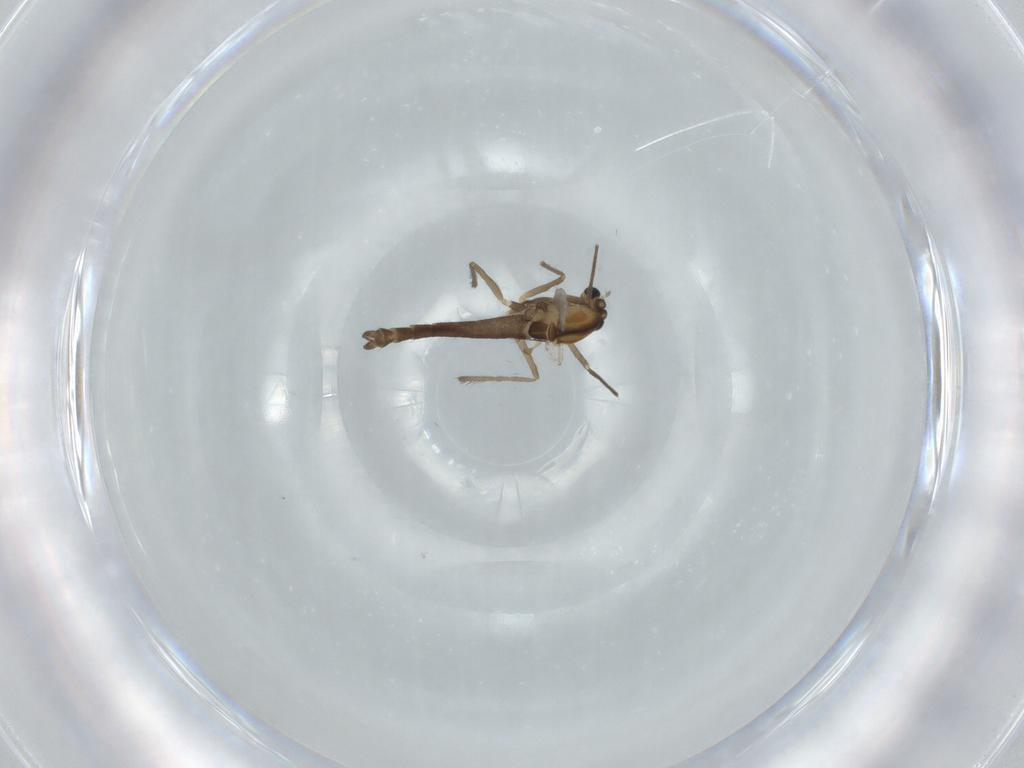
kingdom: Animalia
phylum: Arthropoda
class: Insecta
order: Diptera
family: Chironomidae
